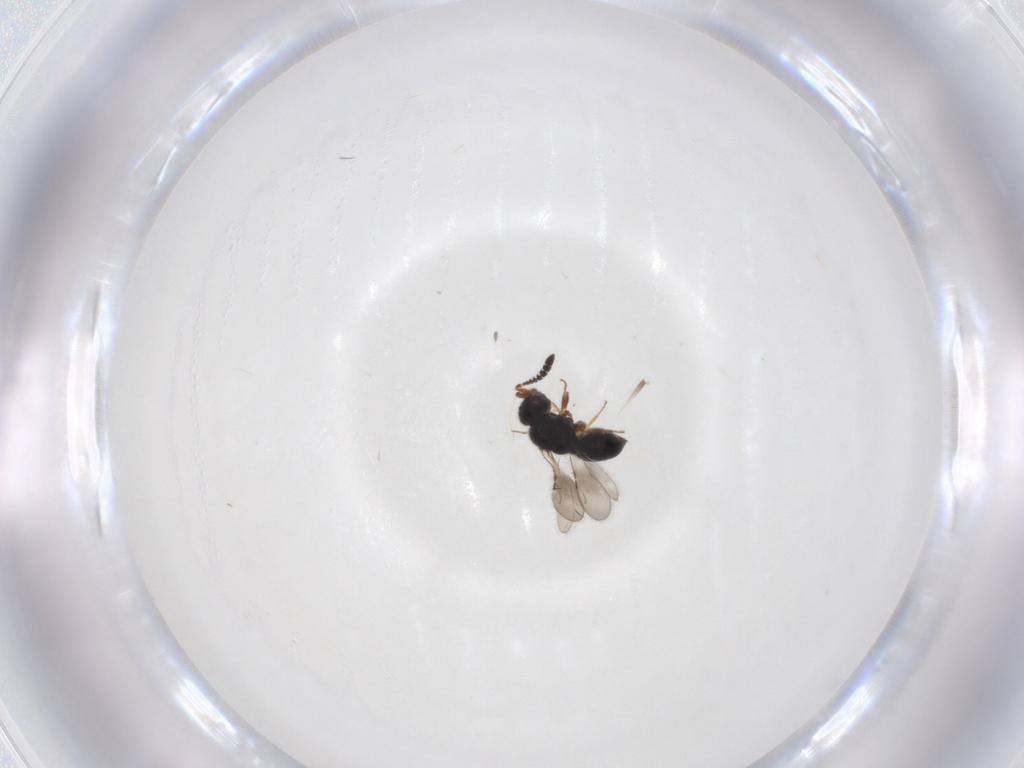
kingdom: Animalia
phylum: Arthropoda
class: Insecta
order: Hymenoptera
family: Ceraphronidae
